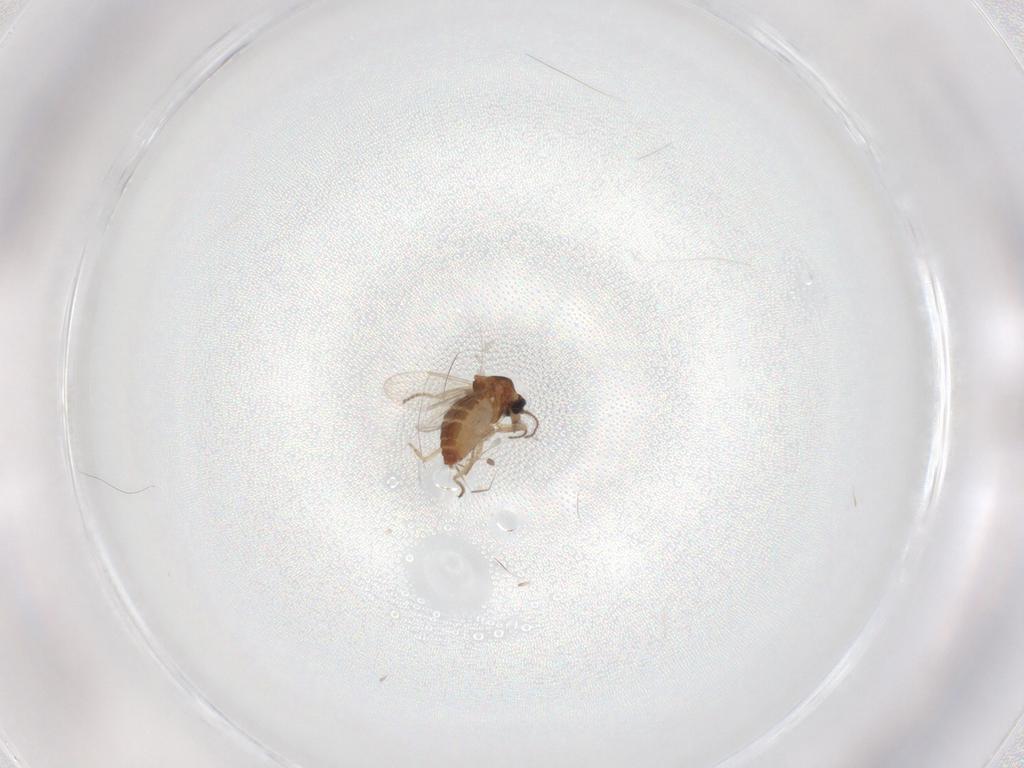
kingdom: Animalia
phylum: Arthropoda
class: Insecta
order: Diptera
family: Ceratopogonidae
